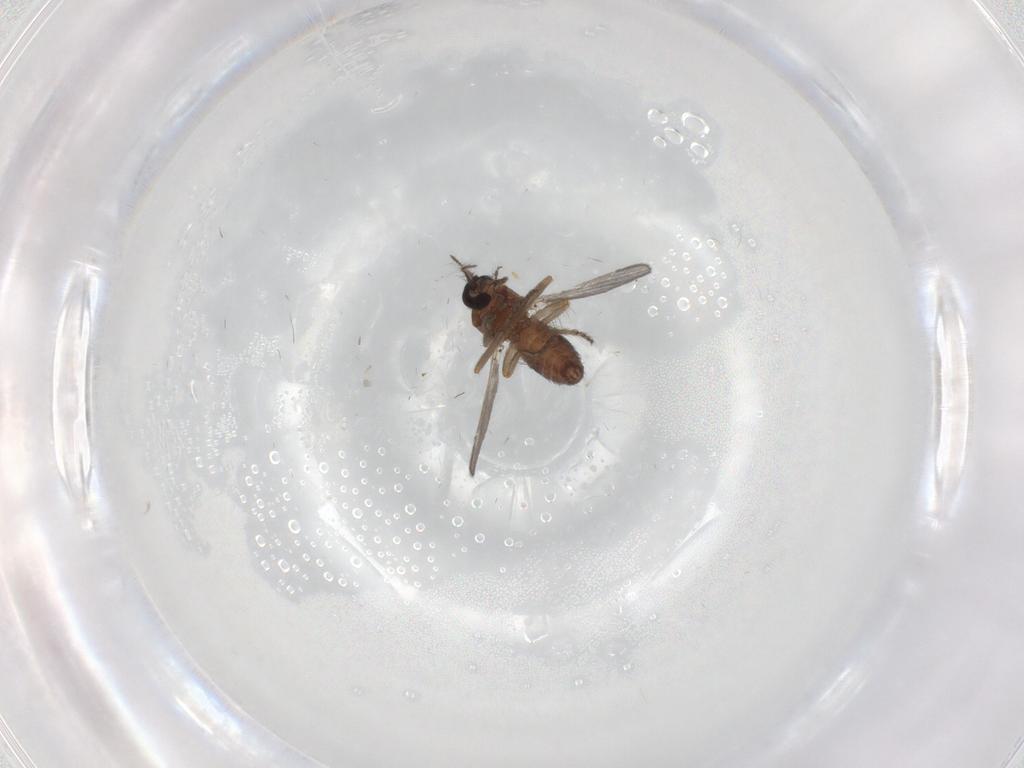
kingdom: Animalia
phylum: Arthropoda
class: Insecta
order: Diptera
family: Ceratopogonidae
